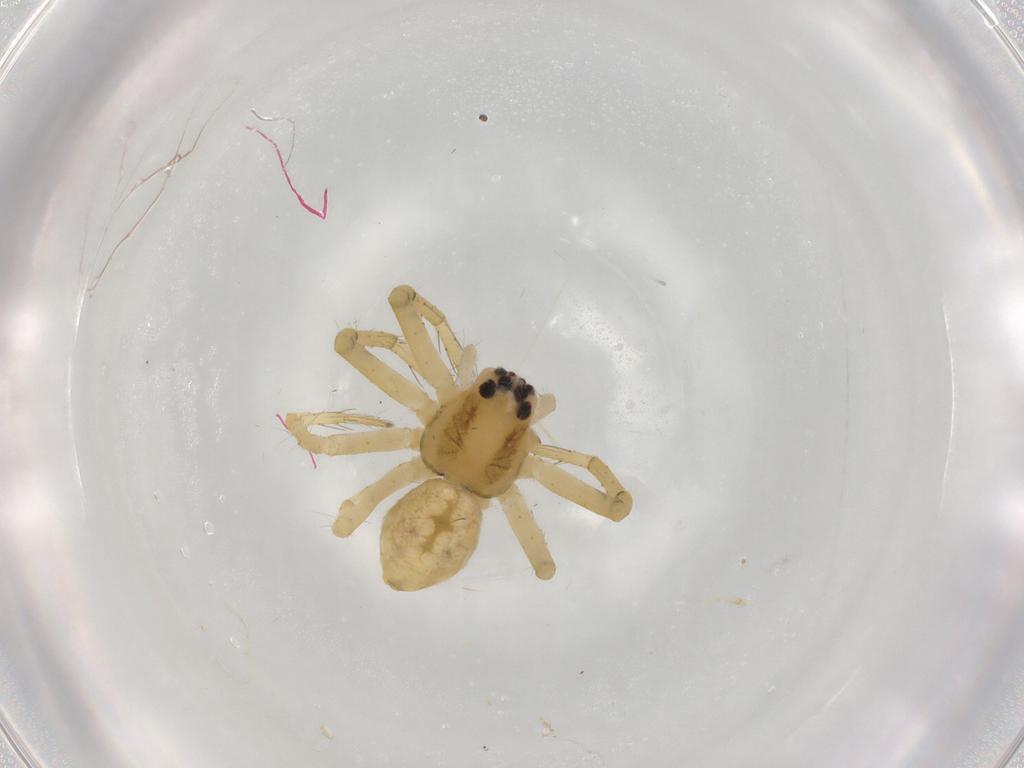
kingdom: Animalia
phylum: Arthropoda
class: Arachnida
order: Araneae
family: Pisauridae
